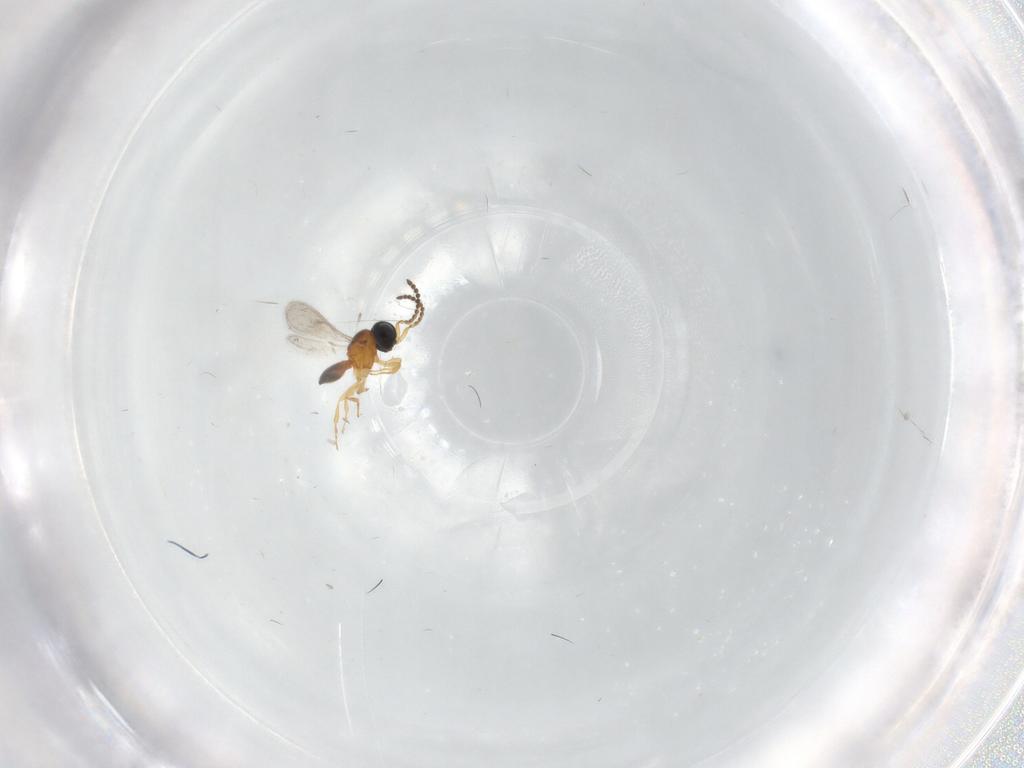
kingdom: Animalia
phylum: Arthropoda
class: Insecta
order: Hymenoptera
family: Scelionidae
